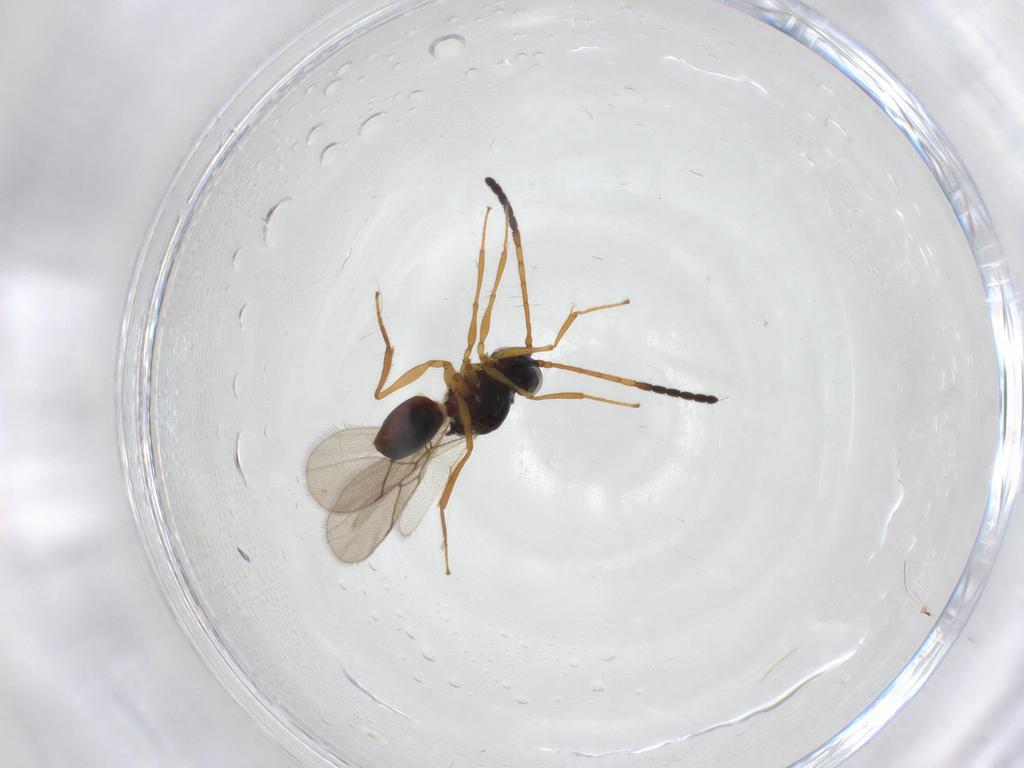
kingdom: Animalia
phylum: Arthropoda
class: Insecta
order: Hymenoptera
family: Figitidae
